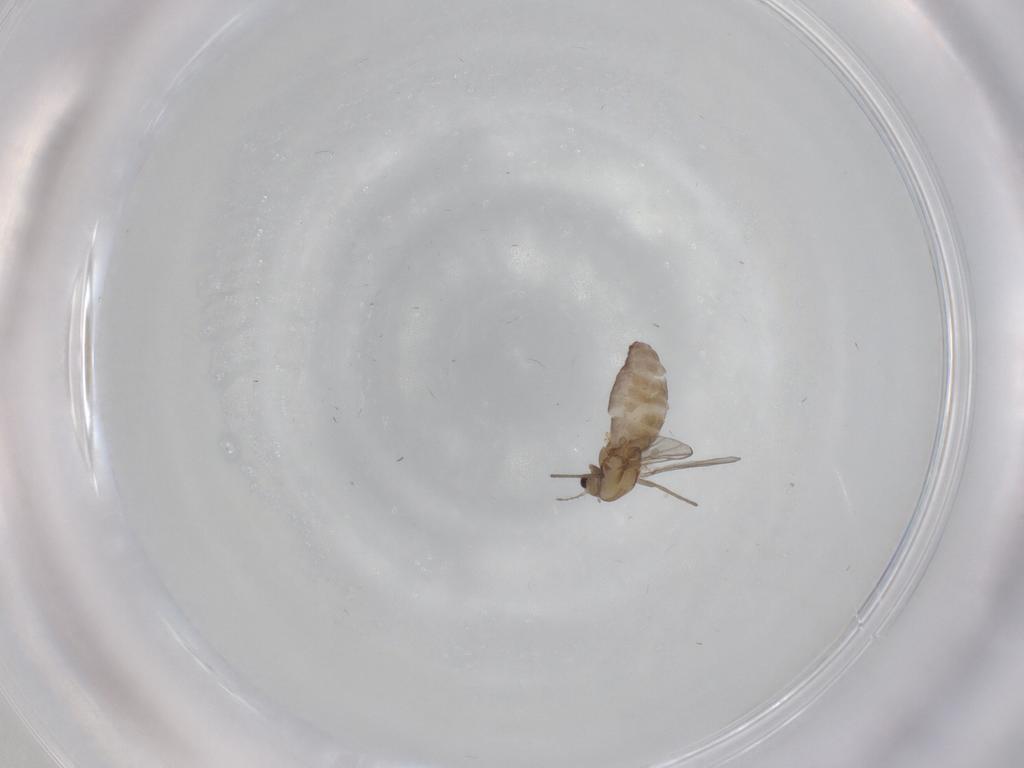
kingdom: Animalia
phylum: Arthropoda
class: Insecta
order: Diptera
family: Chironomidae
